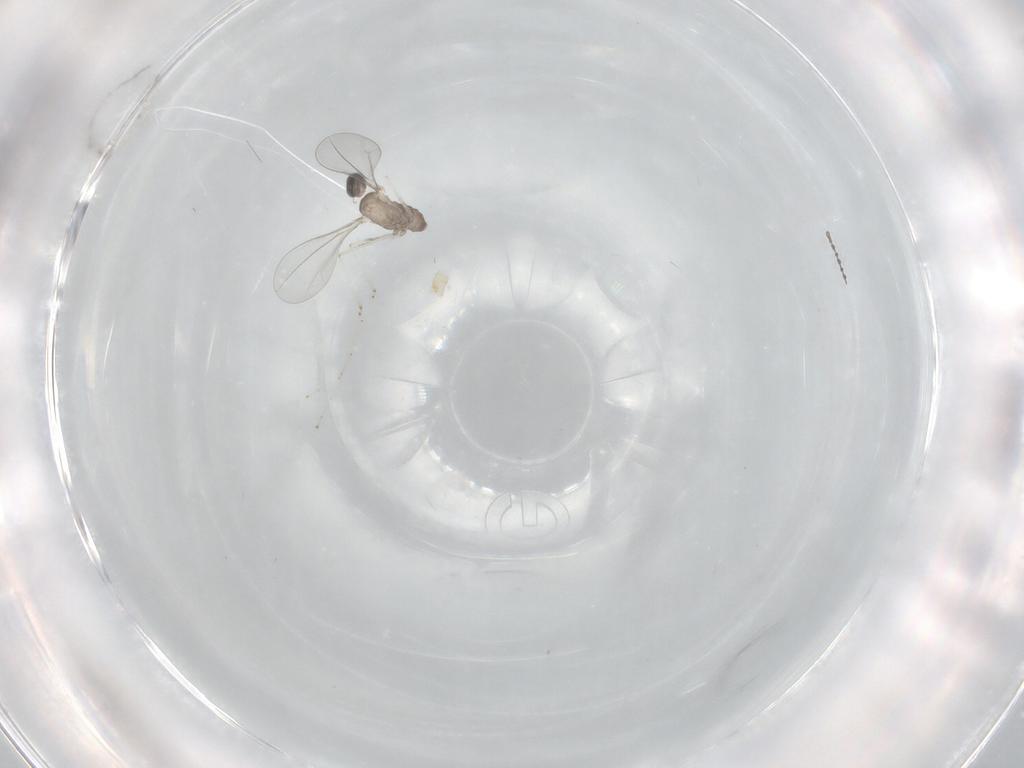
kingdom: Animalia
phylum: Arthropoda
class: Insecta
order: Diptera
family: Cecidomyiidae
